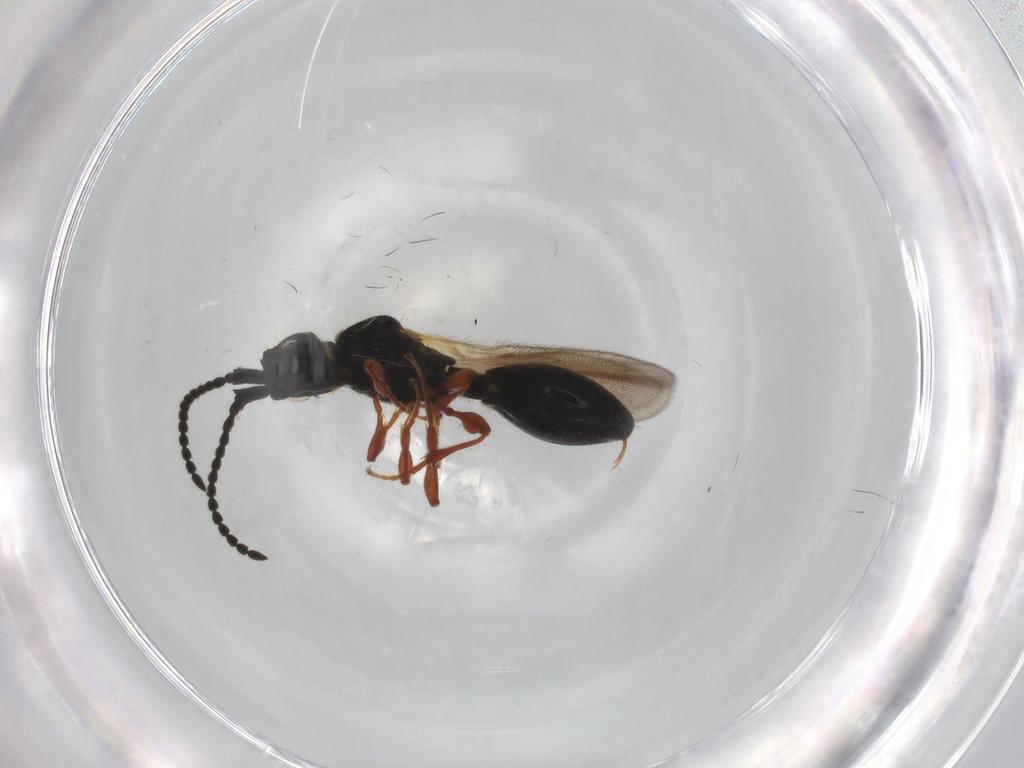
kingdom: Animalia
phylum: Arthropoda
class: Insecta
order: Hymenoptera
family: Diapriidae
